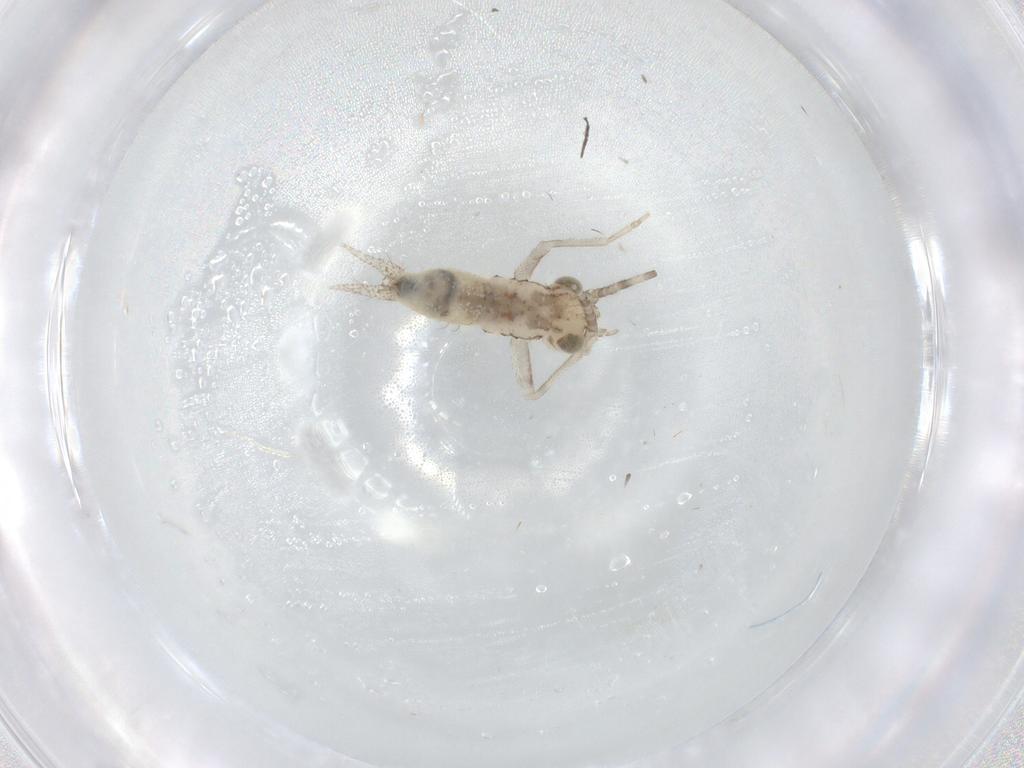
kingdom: Animalia
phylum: Arthropoda
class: Insecta
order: Orthoptera
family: Trigonidiidae
